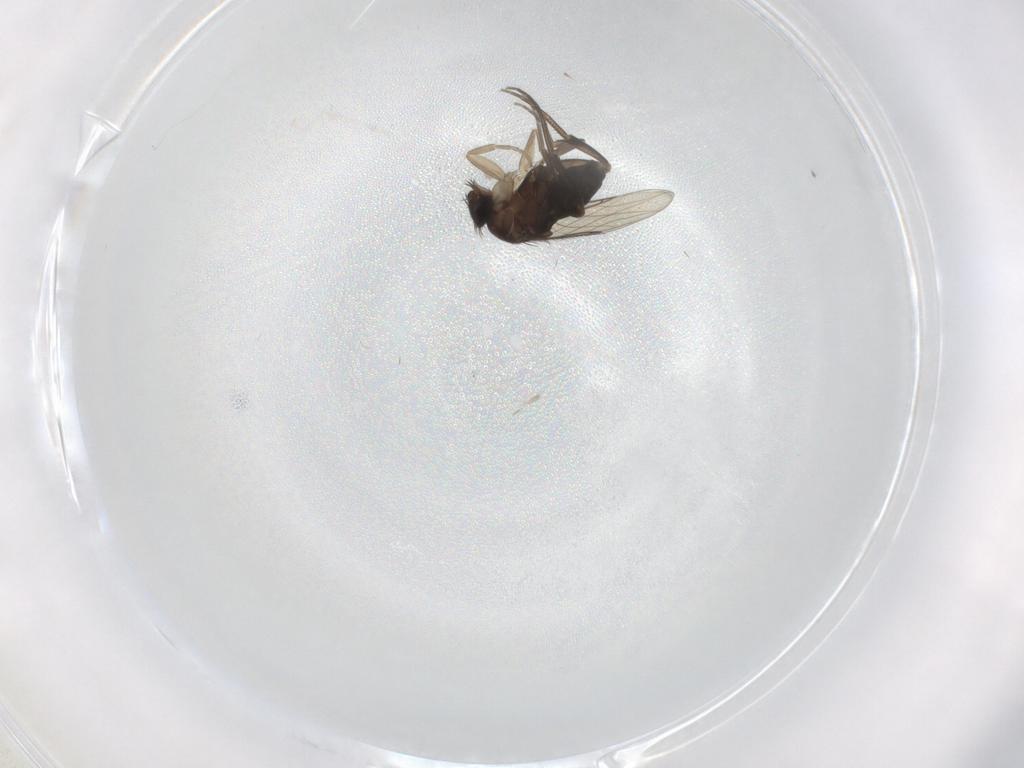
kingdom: Animalia
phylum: Arthropoda
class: Insecta
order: Diptera
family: Phoridae
